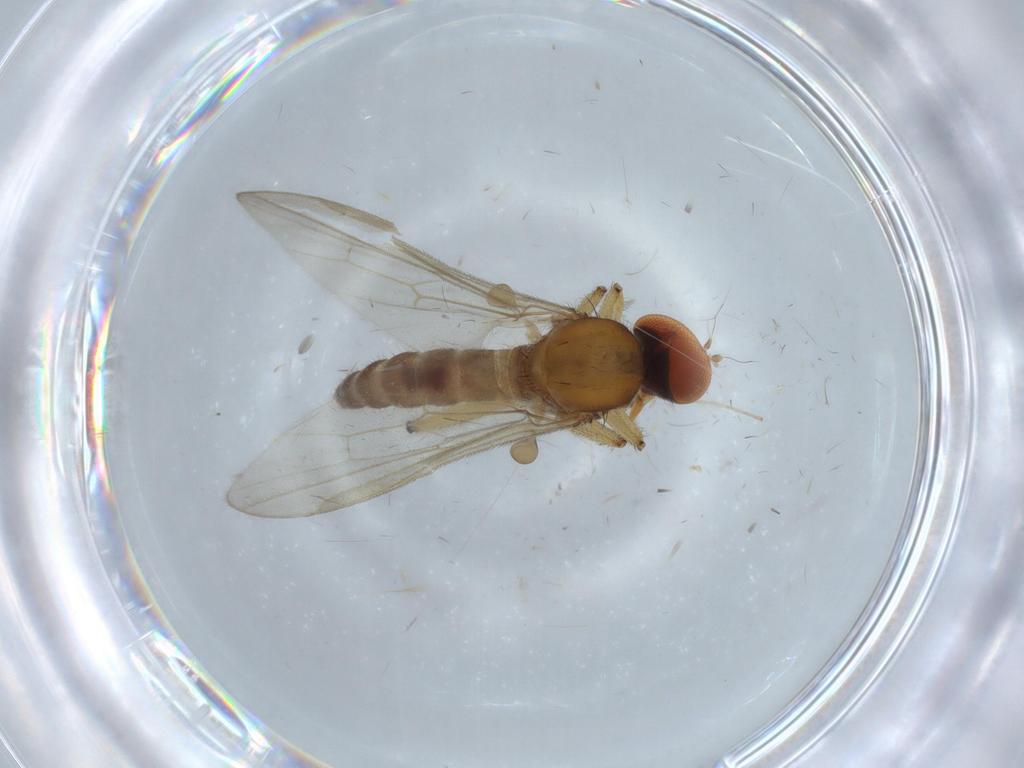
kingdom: Animalia
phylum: Arthropoda
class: Insecta
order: Diptera
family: Hybotidae
